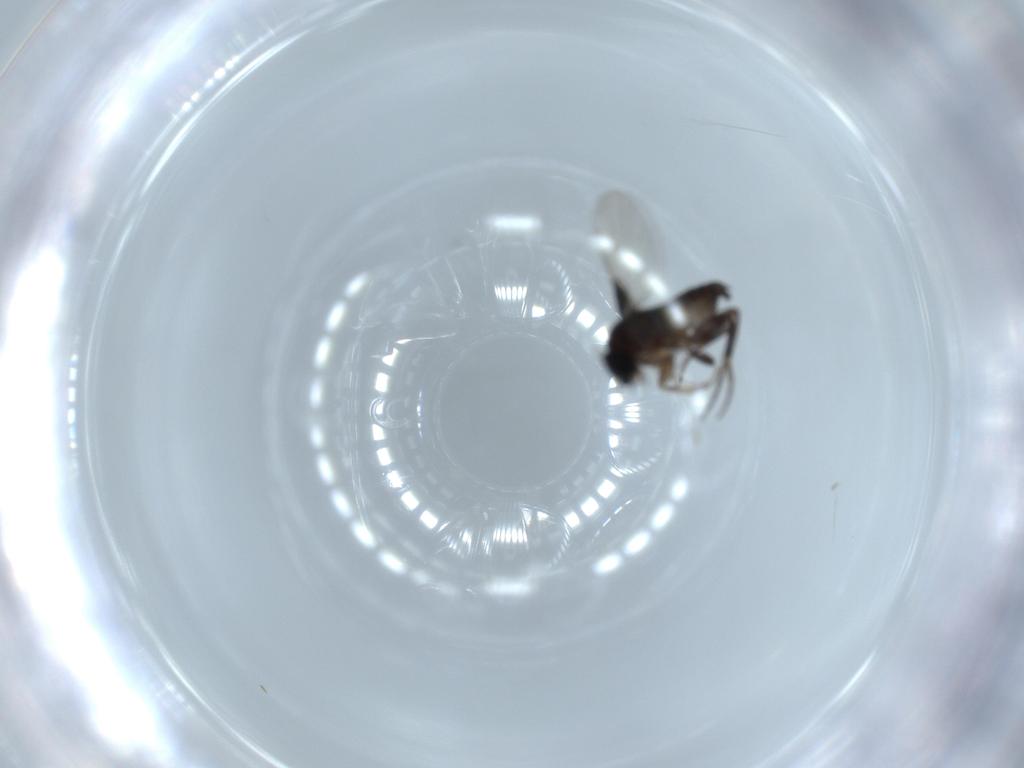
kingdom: Animalia
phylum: Arthropoda
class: Insecta
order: Diptera
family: Phoridae
